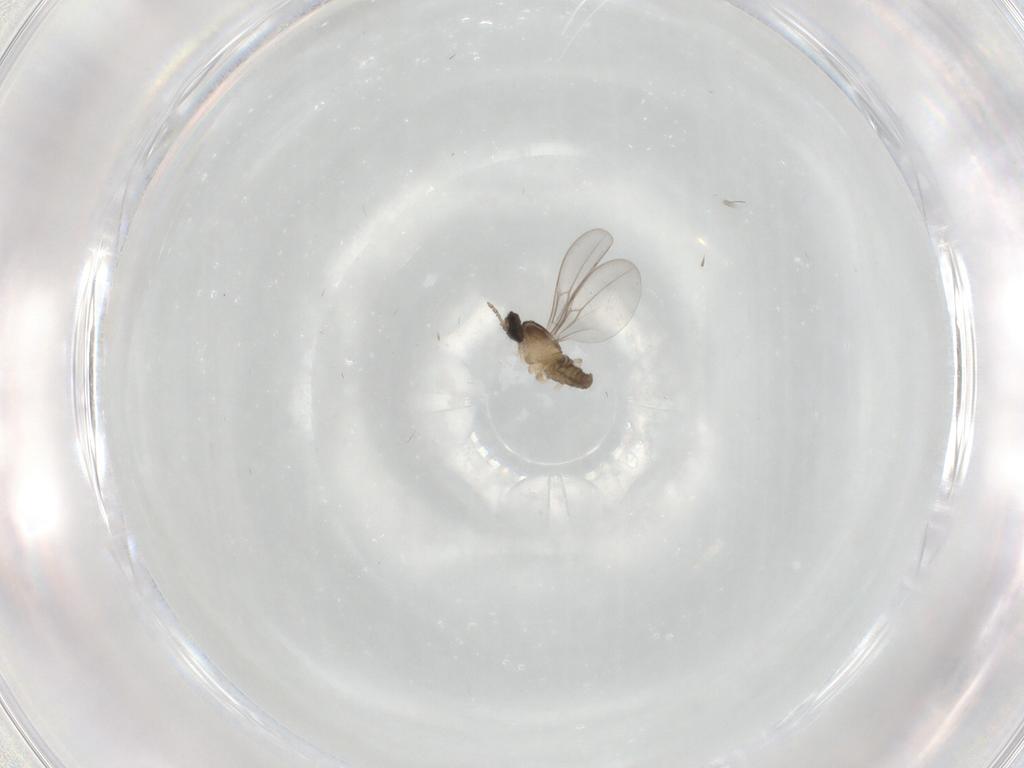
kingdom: Animalia
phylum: Arthropoda
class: Insecta
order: Diptera
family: Cecidomyiidae
